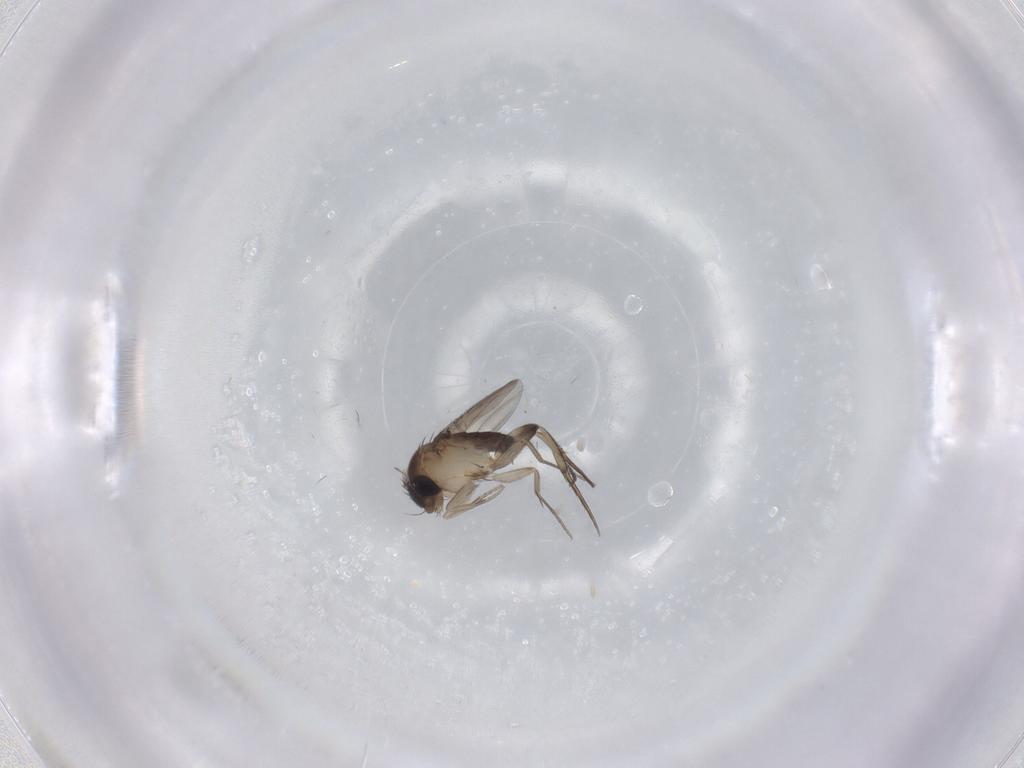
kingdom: Animalia
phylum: Arthropoda
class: Insecta
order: Diptera
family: Phoridae
